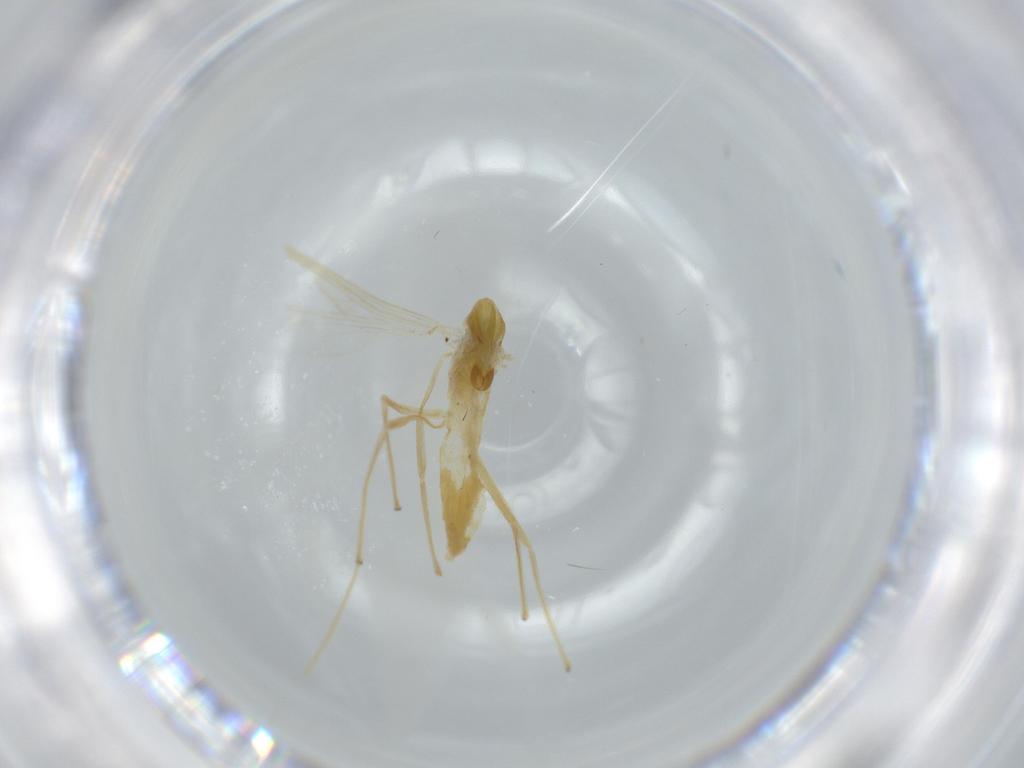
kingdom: Animalia
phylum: Arthropoda
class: Insecta
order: Diptera
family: Chironomidae
